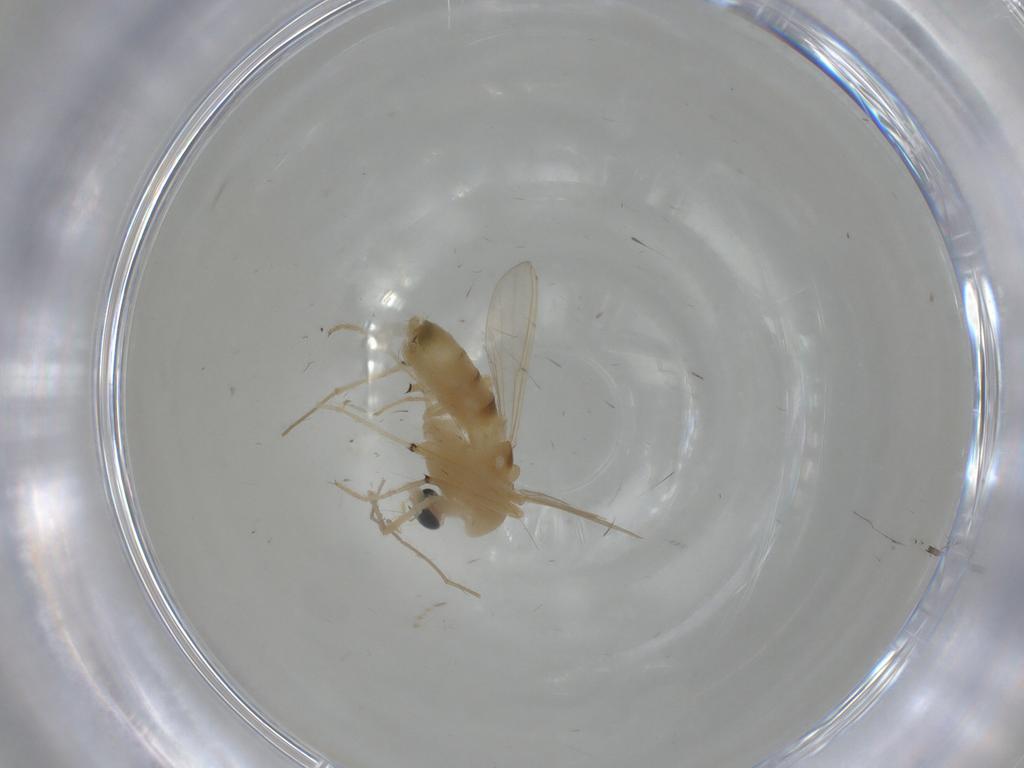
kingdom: Animalia
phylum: Arthropoda
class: Insecta
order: Diptera
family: Chironomidae
